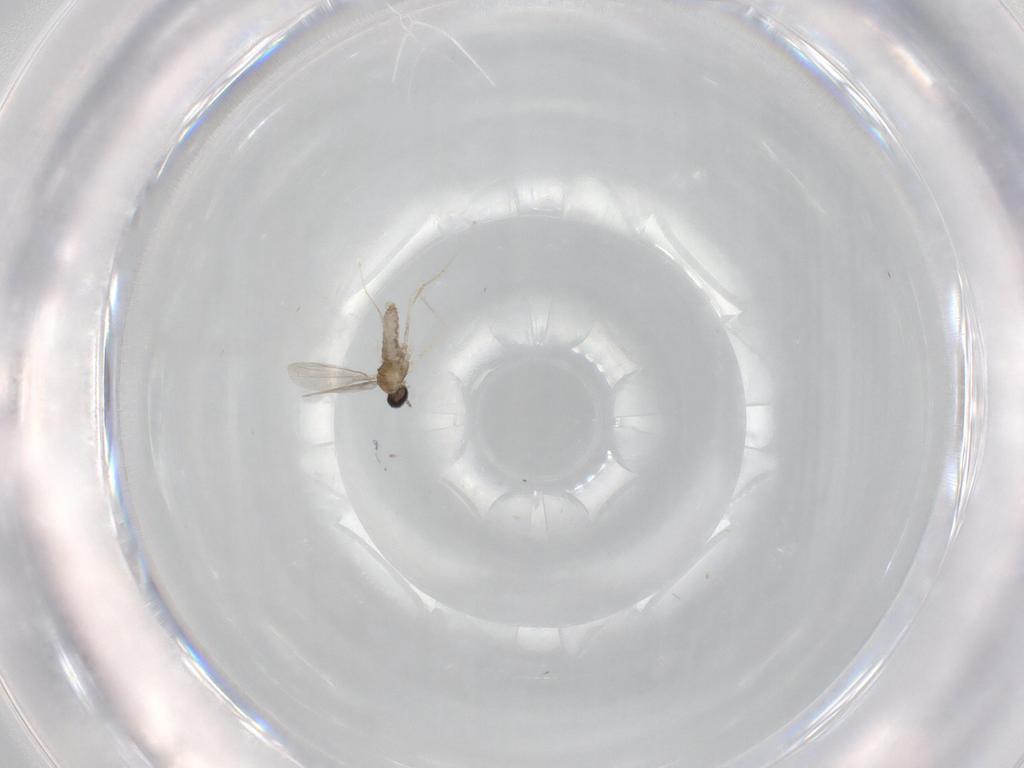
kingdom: Animalia
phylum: Arthropoda
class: Insecta
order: Diptera
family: Cecidomyiidae
